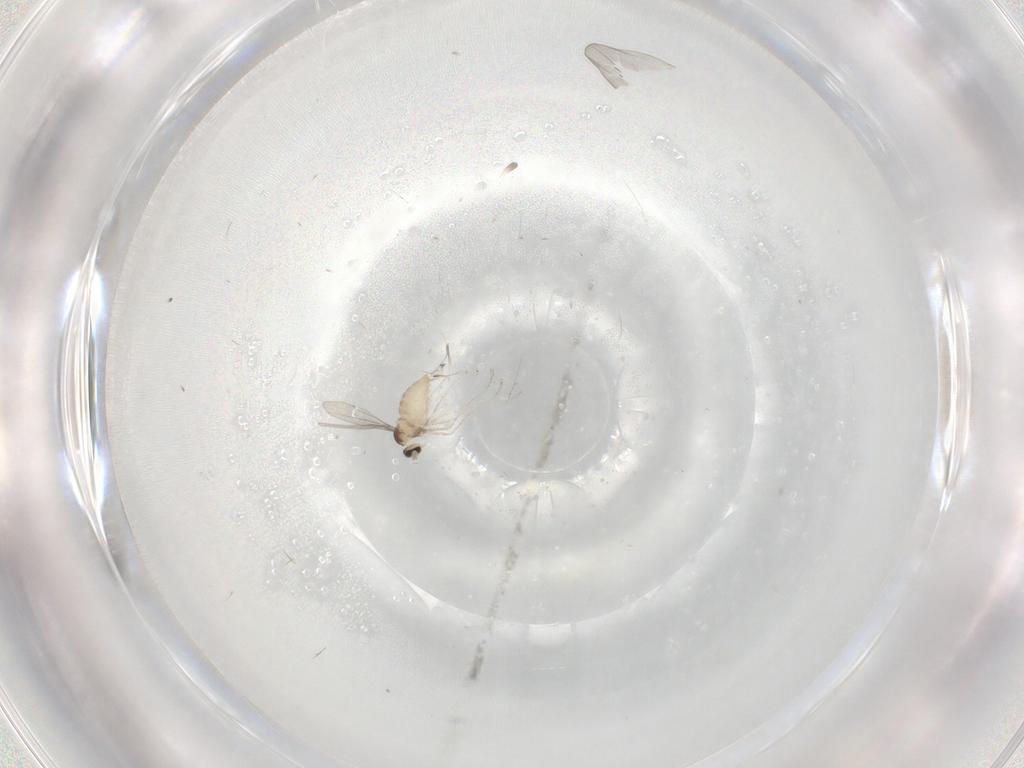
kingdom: Animalia
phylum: Arthropoda
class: Insecta
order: Diptera
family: Cecidomyiidae
